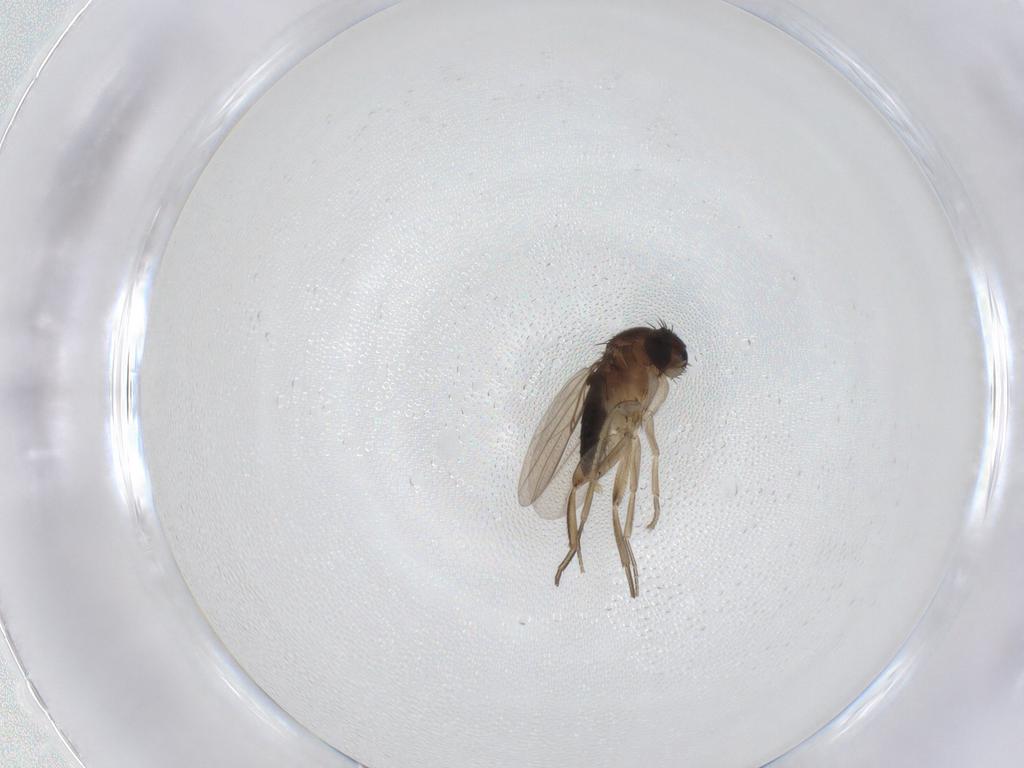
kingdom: Animalia
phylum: Arthropoda
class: Insecta
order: Diptera
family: Phoridae
